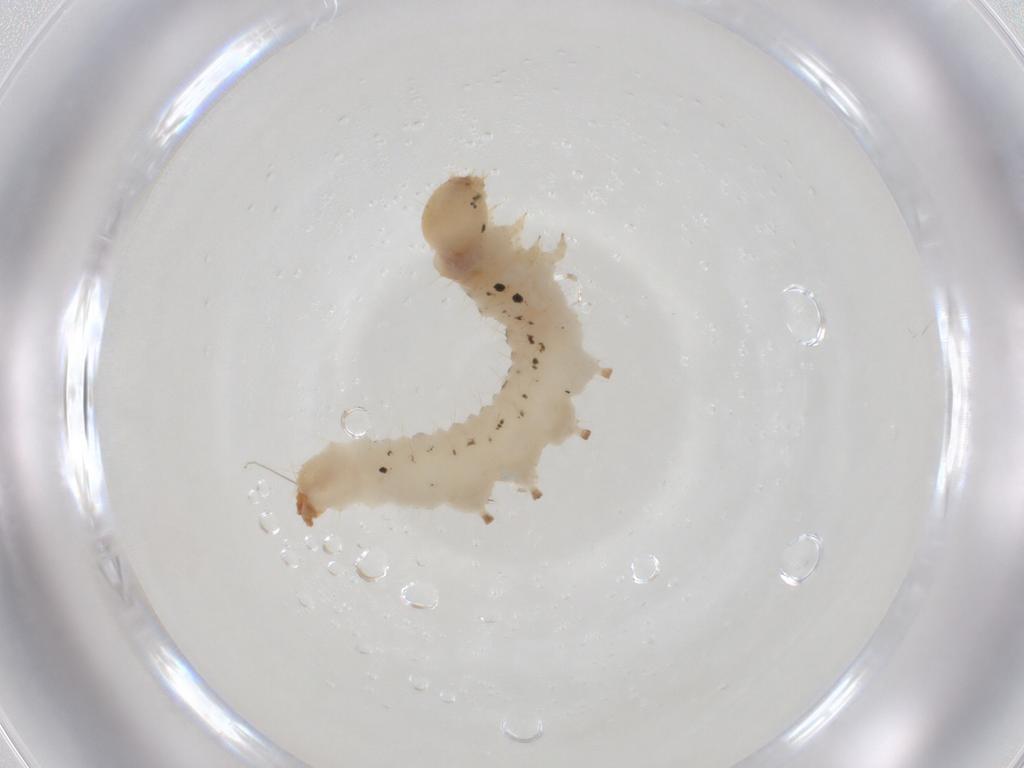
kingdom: Animalia
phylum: Arthropoda
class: Insecta
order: Lepidoptera
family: Crambidae
